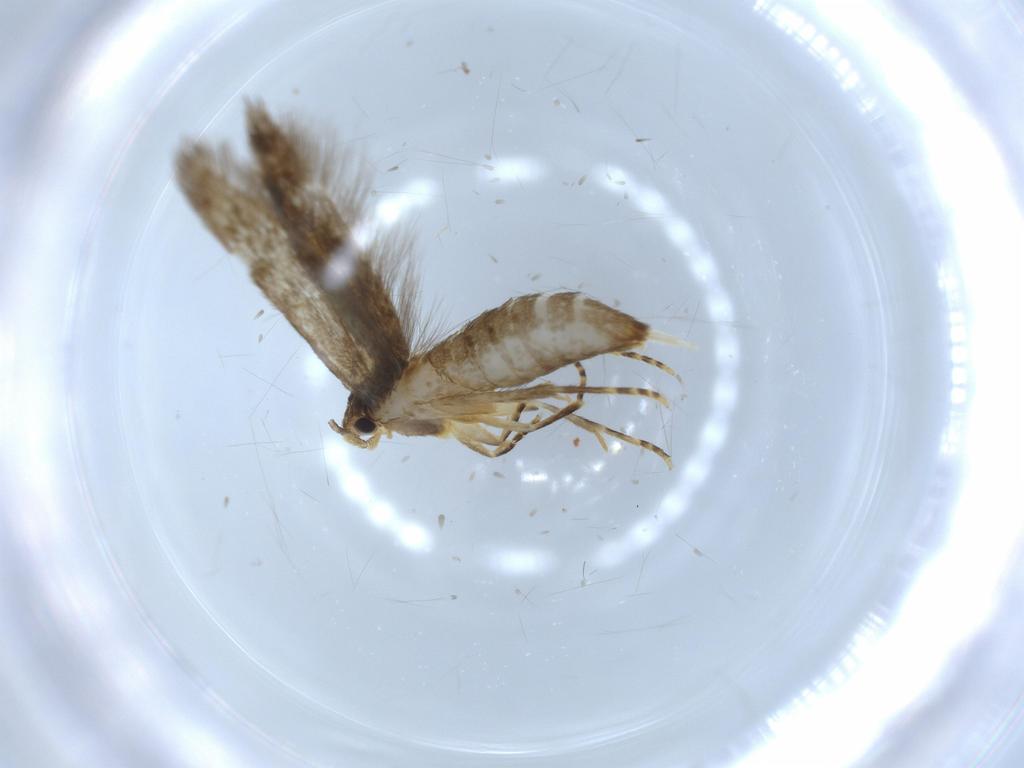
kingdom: Animalia
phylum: Arthropoda
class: Insecta
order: Lepidoptera
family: Tineidae
